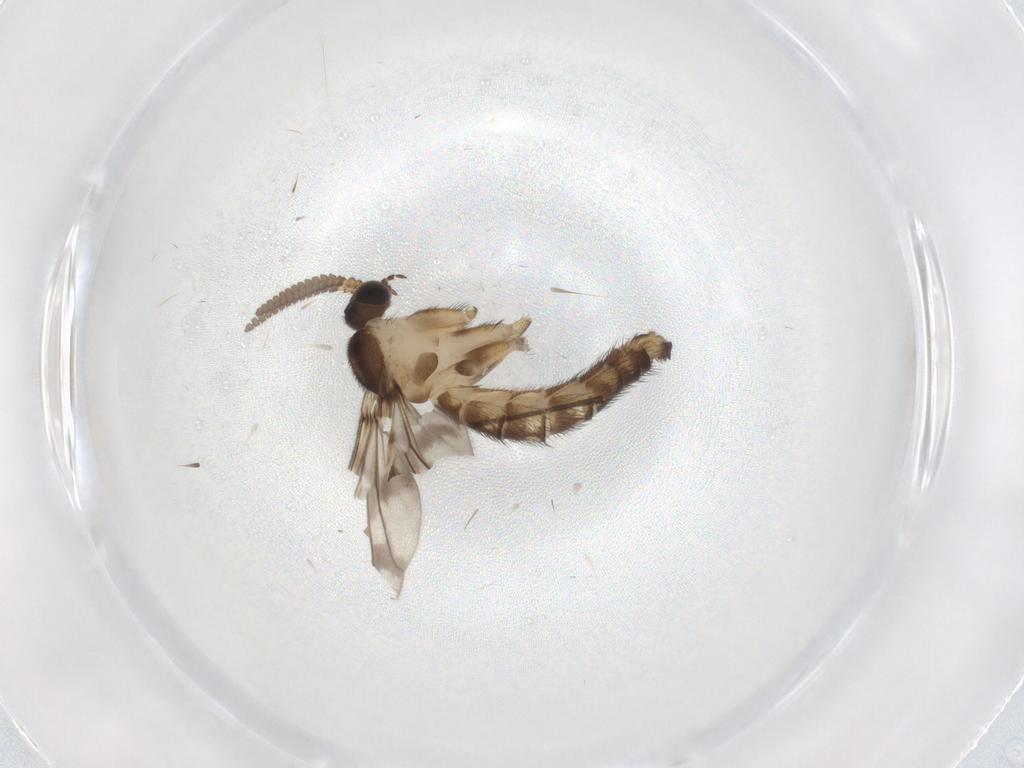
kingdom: Animalia
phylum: Arthropoda
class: Insecta
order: Diptera
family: Keroplatidae
